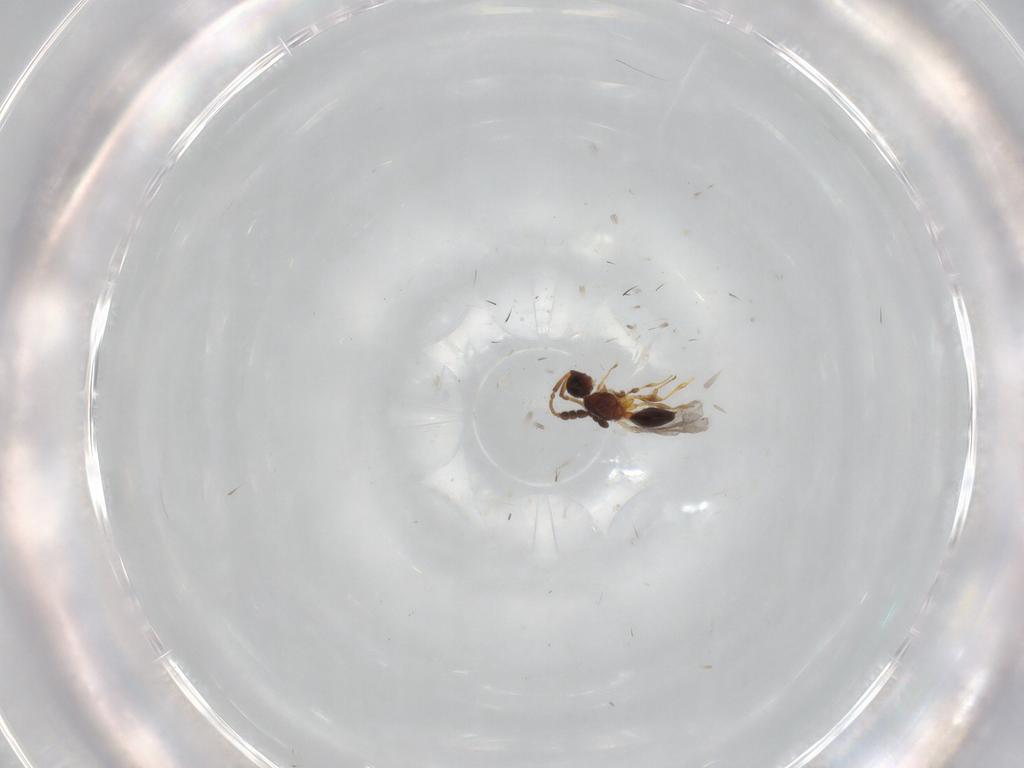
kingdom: Animalia
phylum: Arthropoda
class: Insecta
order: Hymenoptera
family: Diapriidae
